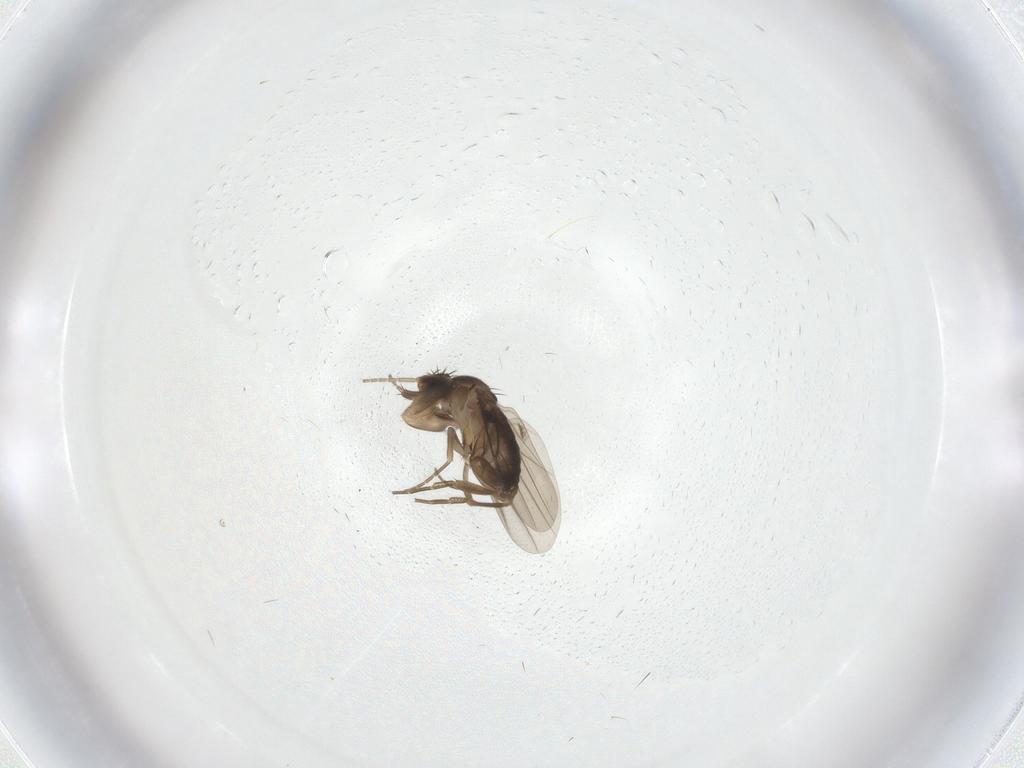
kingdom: Animalia
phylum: Arthropoda
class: Insecta
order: Diptera
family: Phoridae
